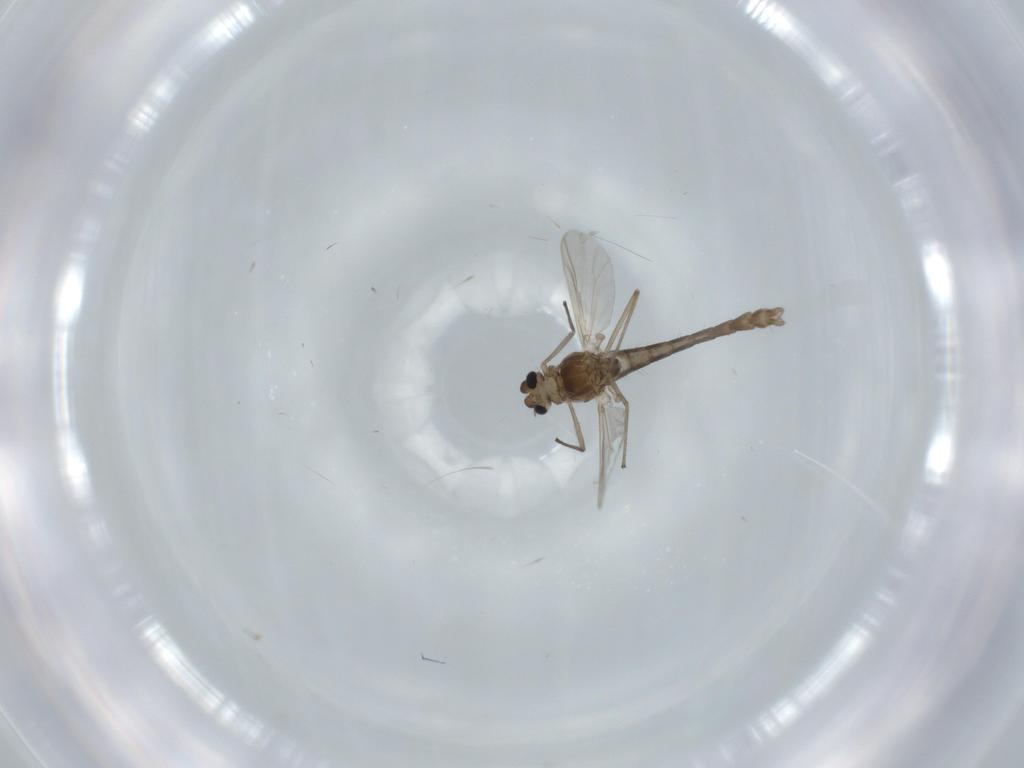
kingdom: Animalia
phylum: Arthropoda
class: Insecta
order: Diptera
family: Chironomidae
